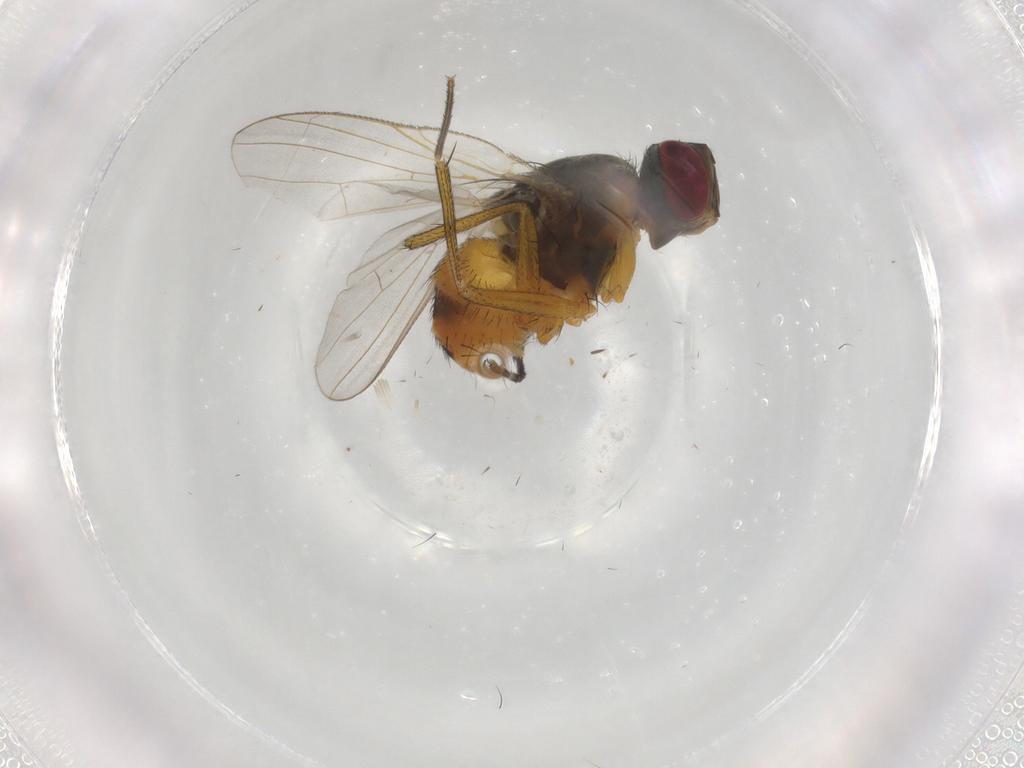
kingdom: Animalia
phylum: Arthropoda
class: Insecta
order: Diptera
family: Muscidae
